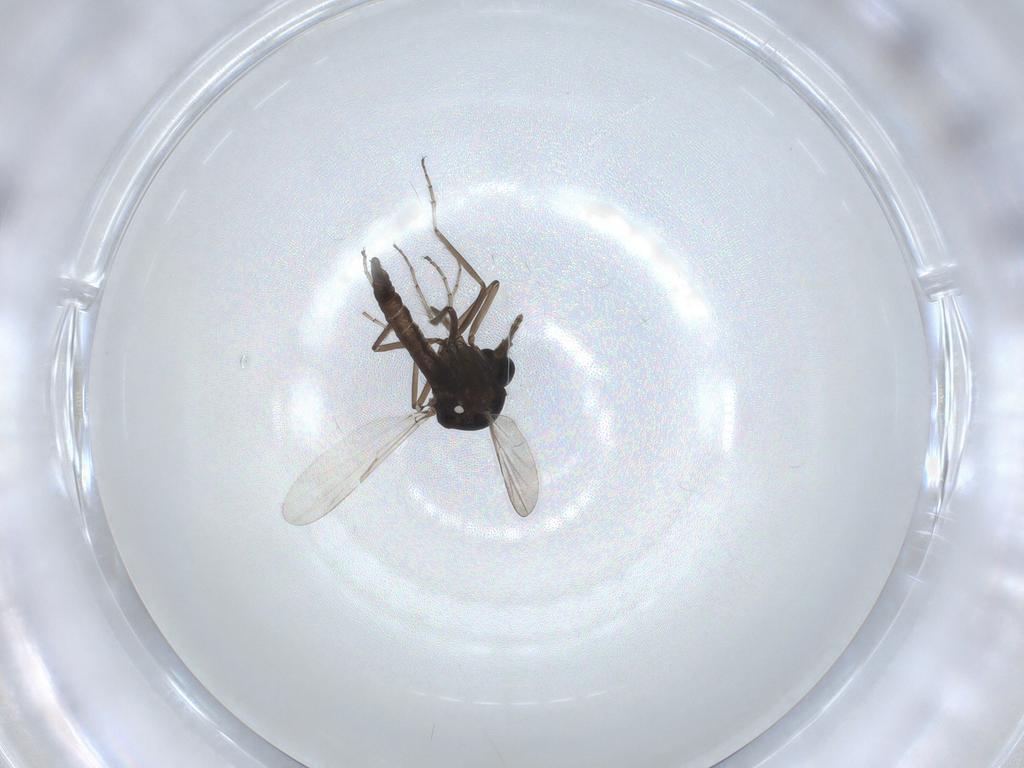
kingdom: Animalia
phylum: Arthropoda
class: Insecta
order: Diptera
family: Ceratopogonidae
